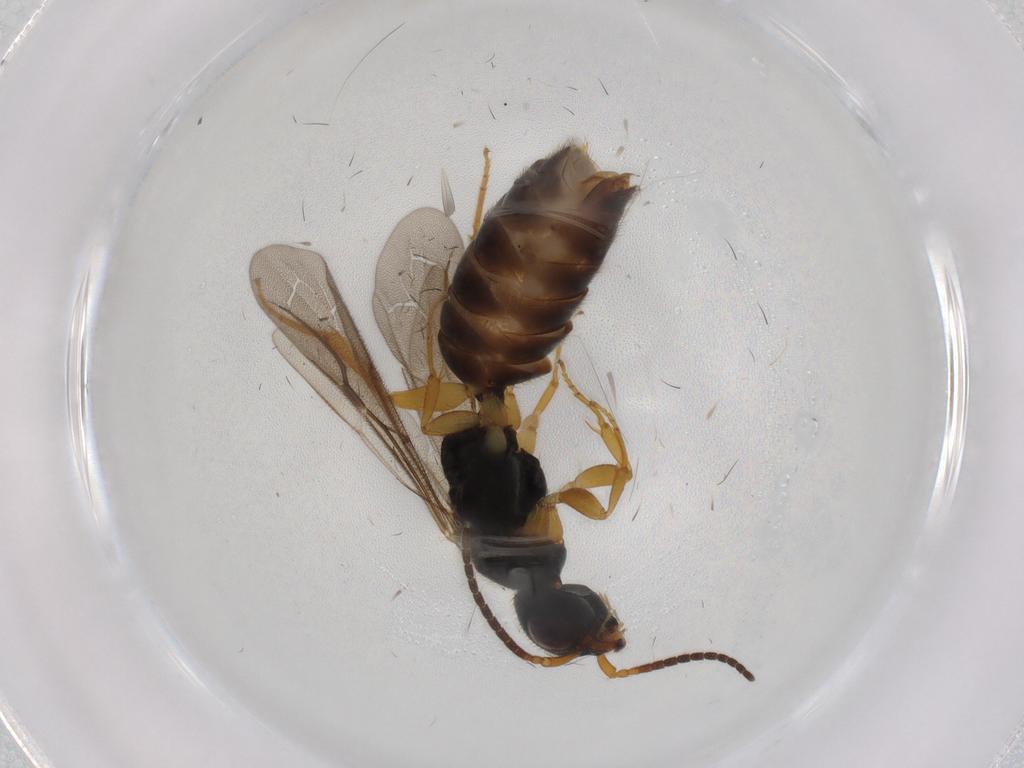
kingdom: Animalia
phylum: Arthropoda
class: Insecta
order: Hymenoptera
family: Bethylidae
